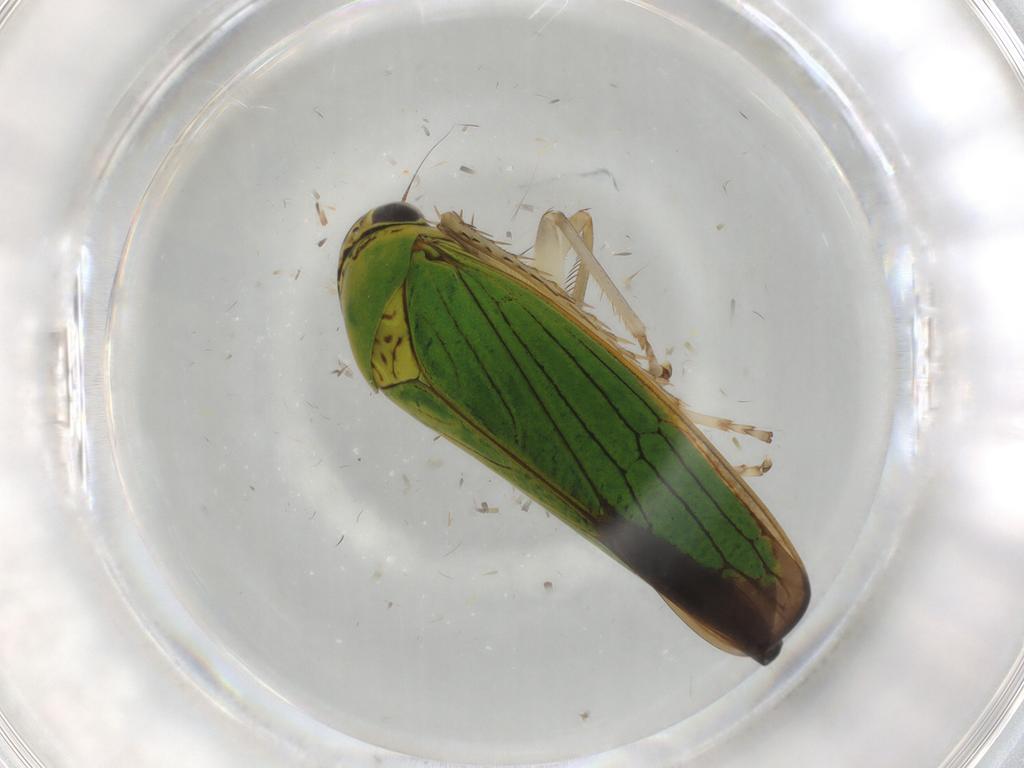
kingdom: Animalia
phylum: Arthropoda
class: Insecta
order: Hemiptera
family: Cicadellidae
